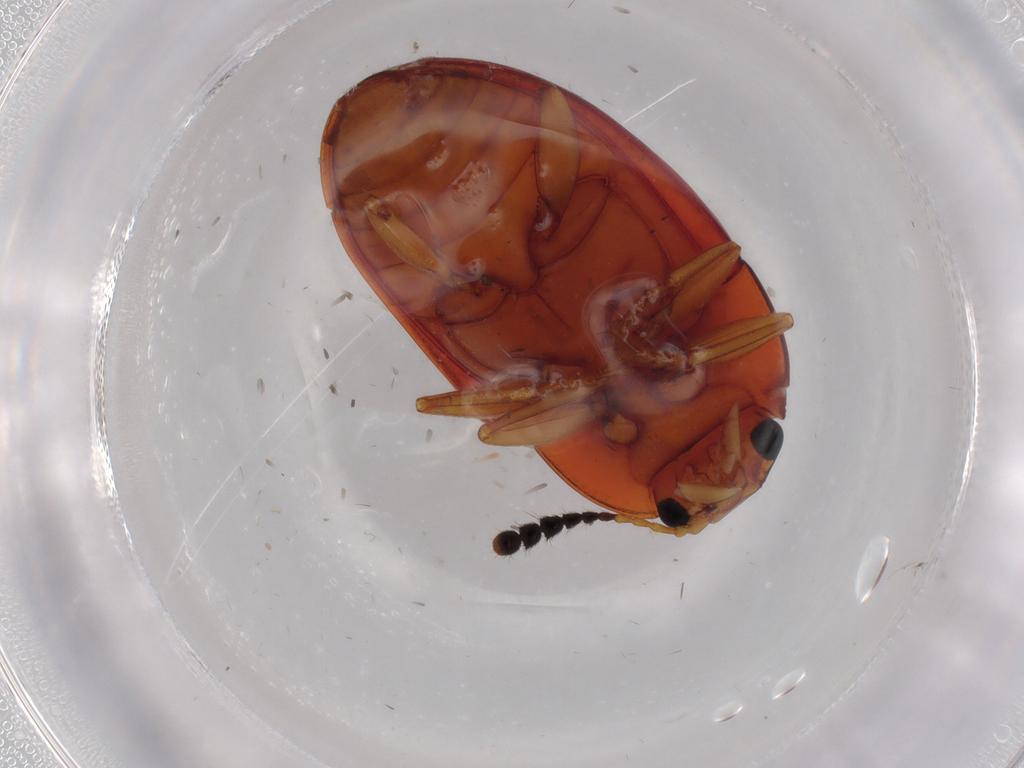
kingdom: Animalia
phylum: Arthropoda
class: Insecta
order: Coleoptera
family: Erotylidae
